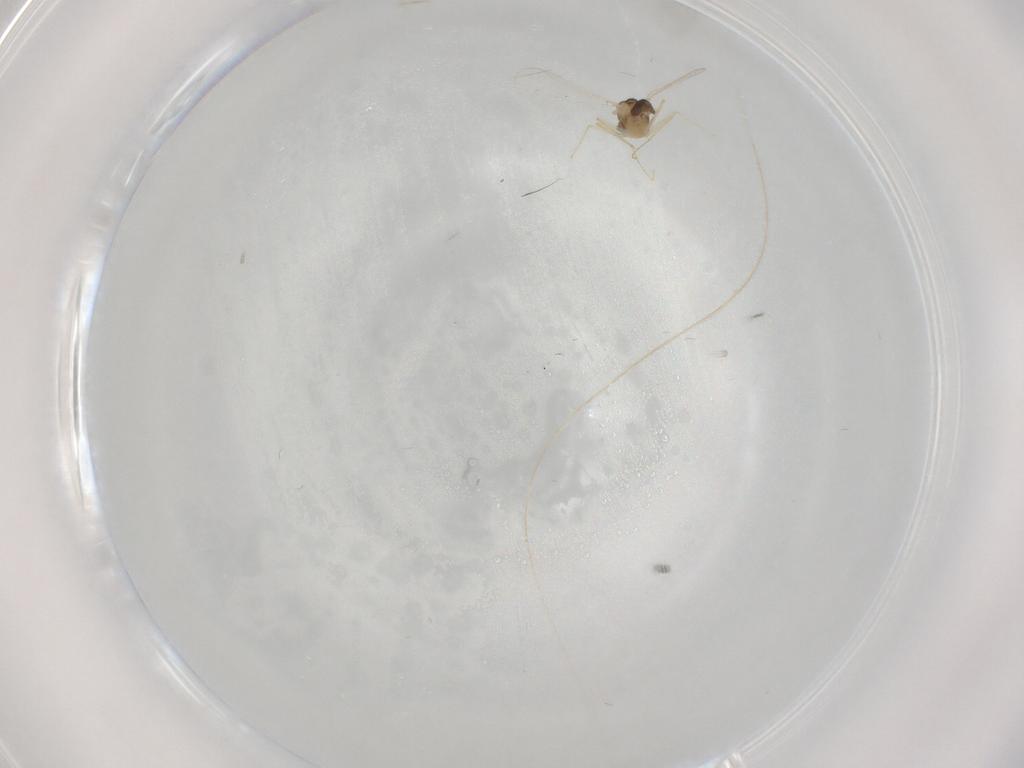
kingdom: Animalia
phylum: Arthropoda
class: Insecta
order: Diptera
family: Chironomidae
